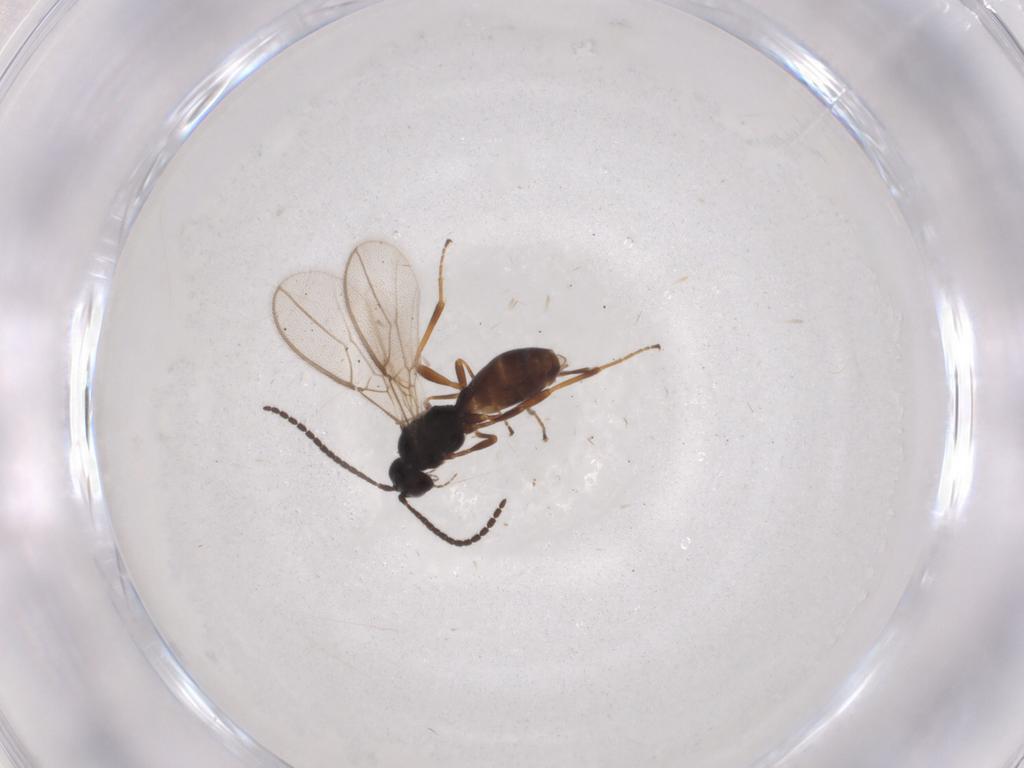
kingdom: Animalia
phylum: Arthropoda
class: Insecta
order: Hymenoptera
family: Braconidae
